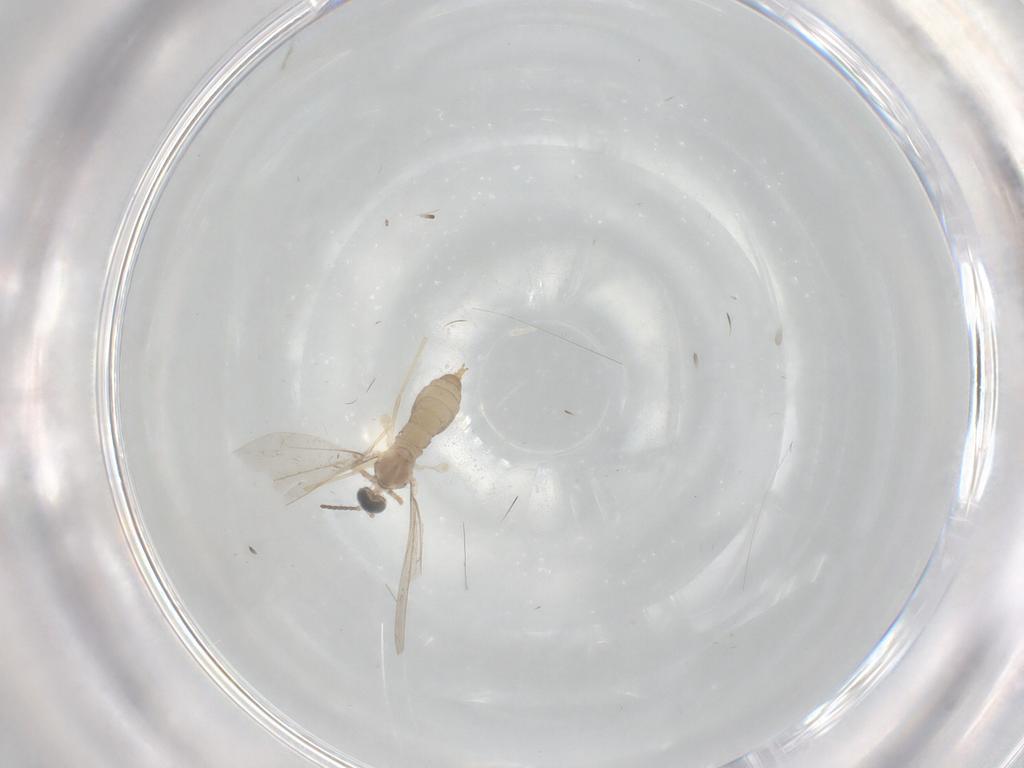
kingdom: Animalia
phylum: Arthropoda
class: Insecta
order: Diptera
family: Cecidomyiidae
